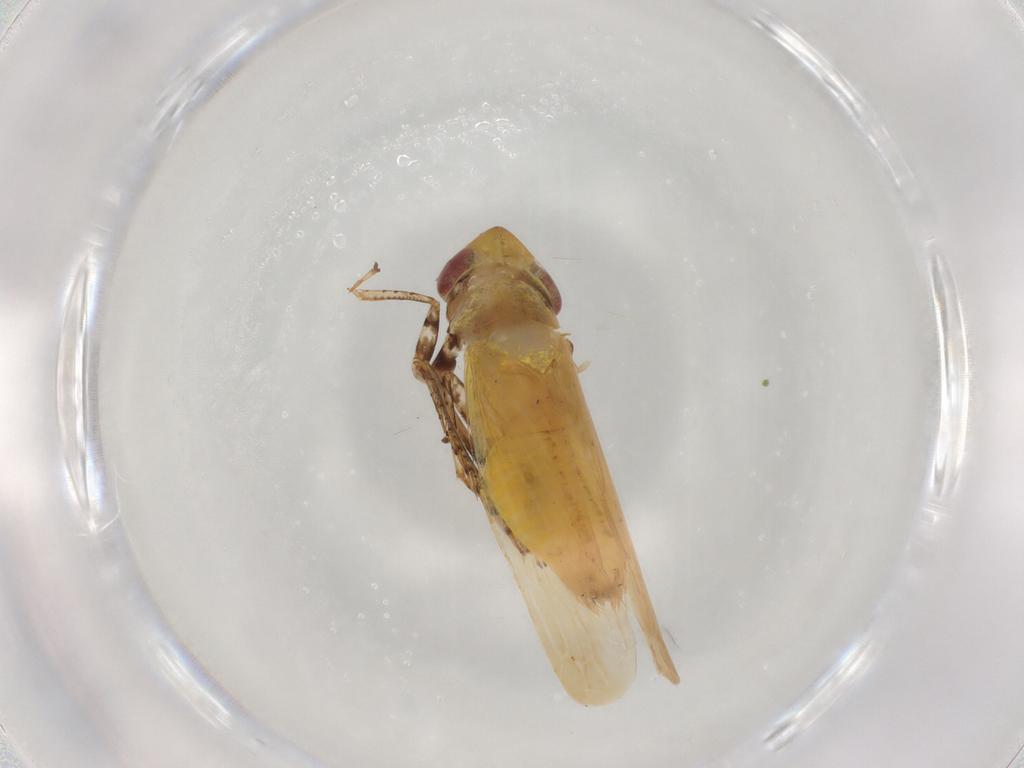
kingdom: Animalia
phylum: Arthropoda
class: Insecta
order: Hemiptera
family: Cicadellidae
